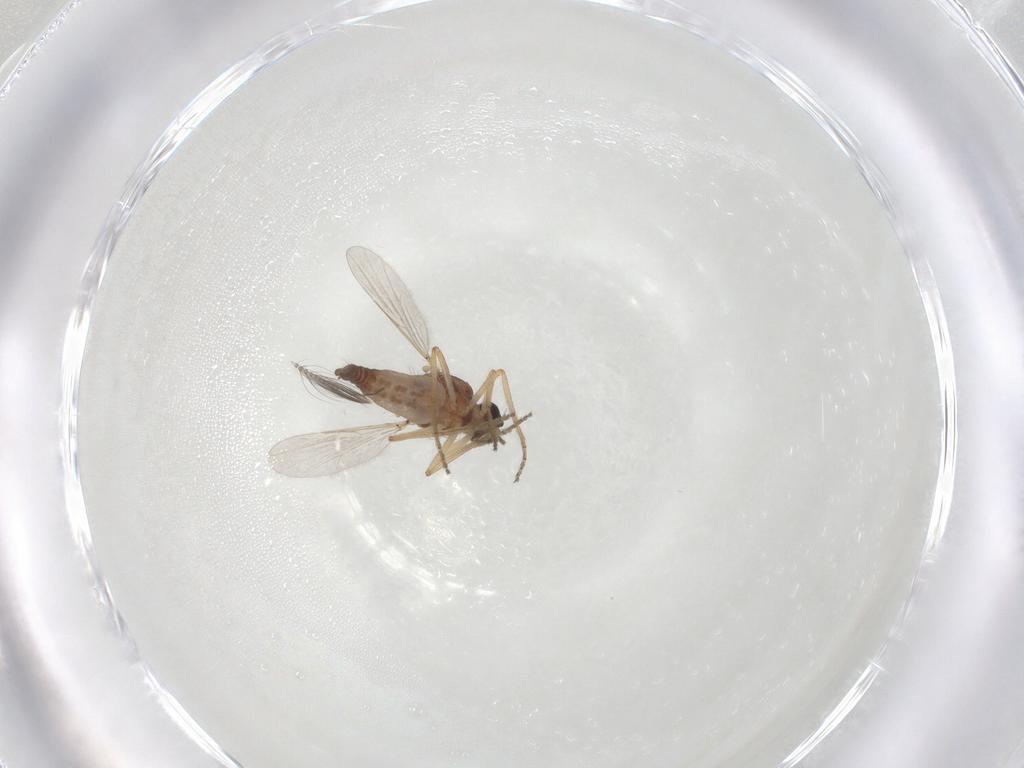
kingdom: Animalia
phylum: Arthropoda
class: Insecta
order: Diptera
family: Ceratopogonidae
